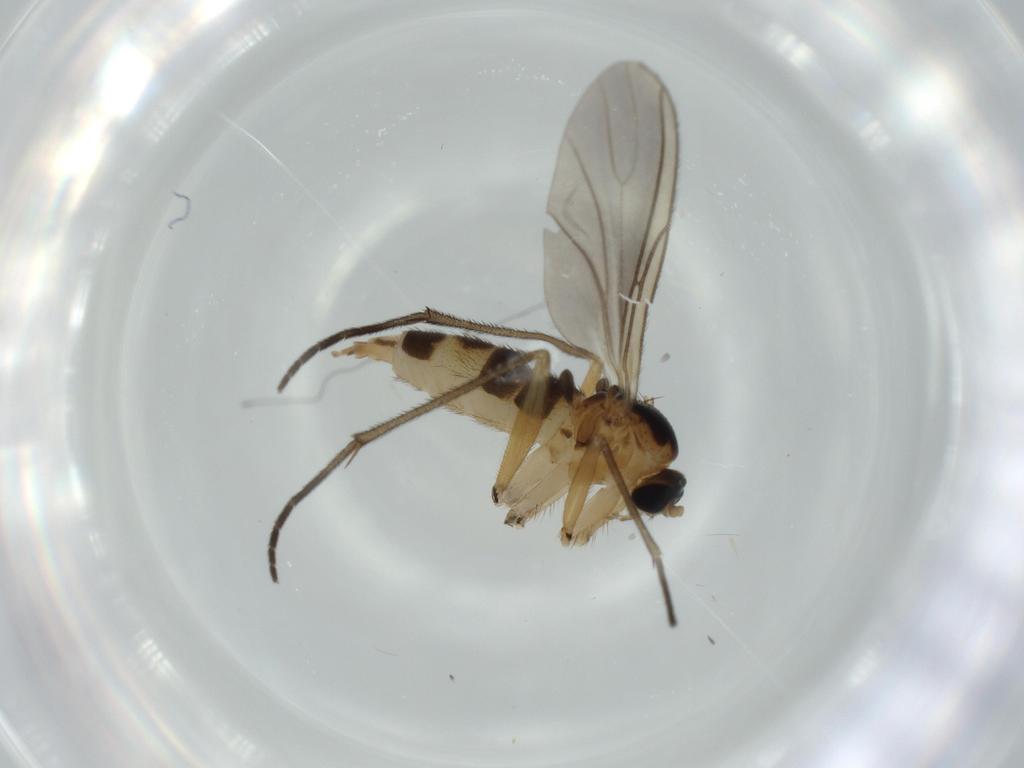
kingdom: Animalia
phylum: Arthropoda
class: Insecta
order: Diptera
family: Sciaridae
